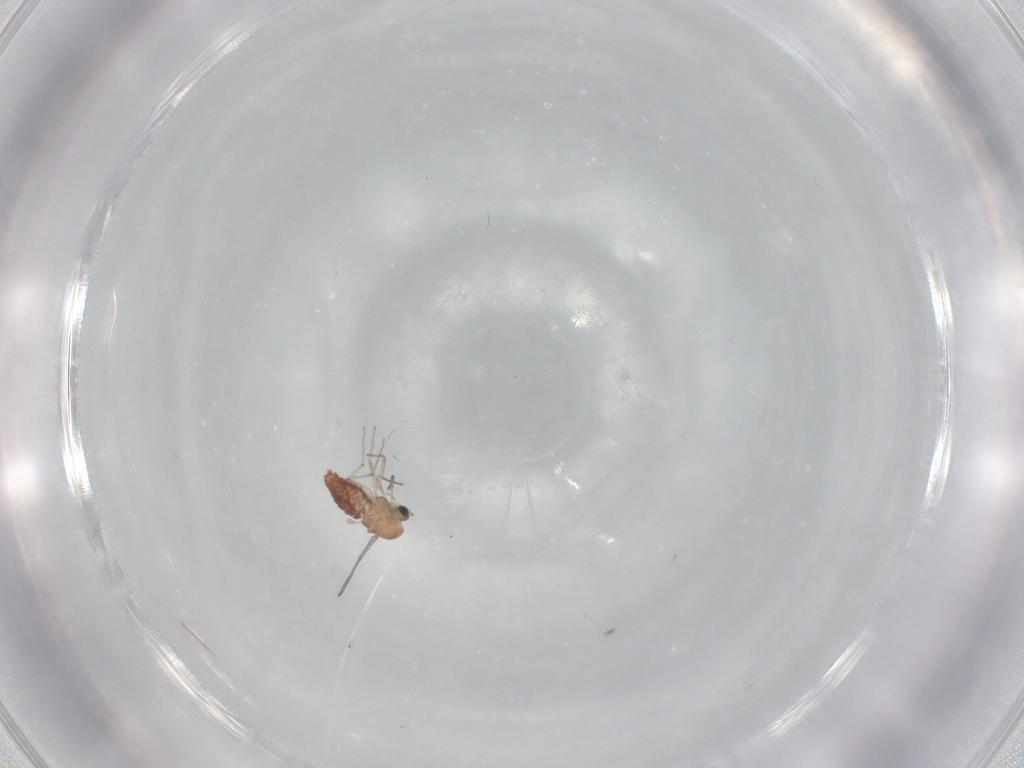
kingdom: Animalia
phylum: Arthropoda
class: Insecta
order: Diptera
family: Chironomidae
